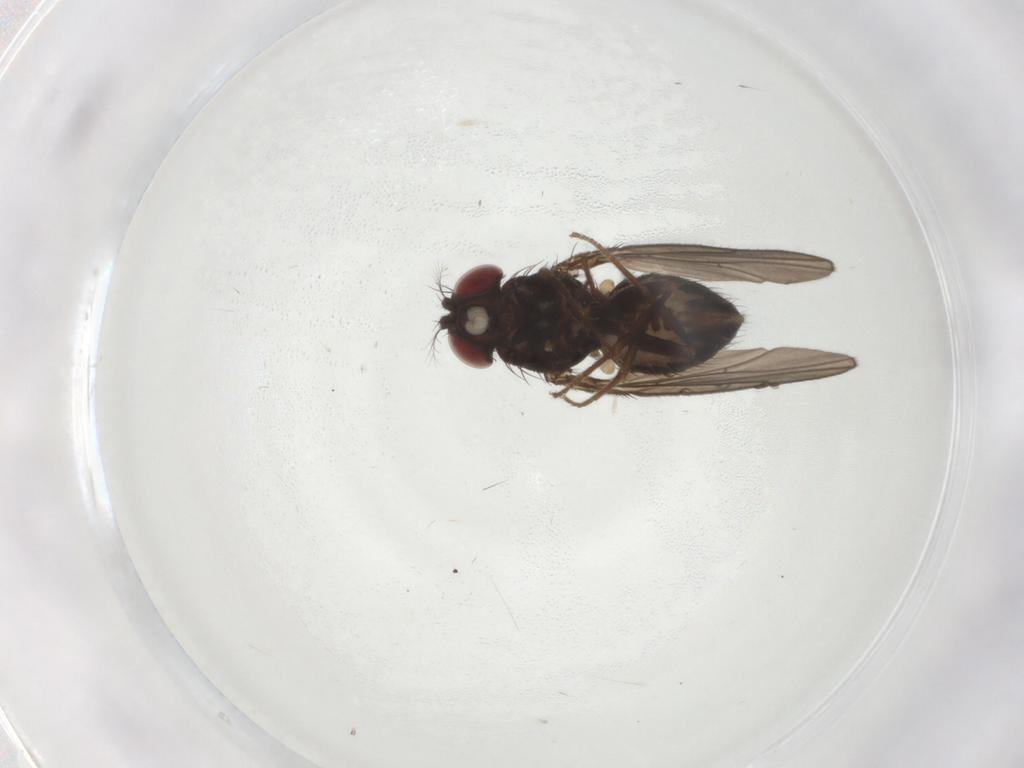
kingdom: Animalia
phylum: Arthropoda
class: Insecta
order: Diptera
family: Drosophilidae
